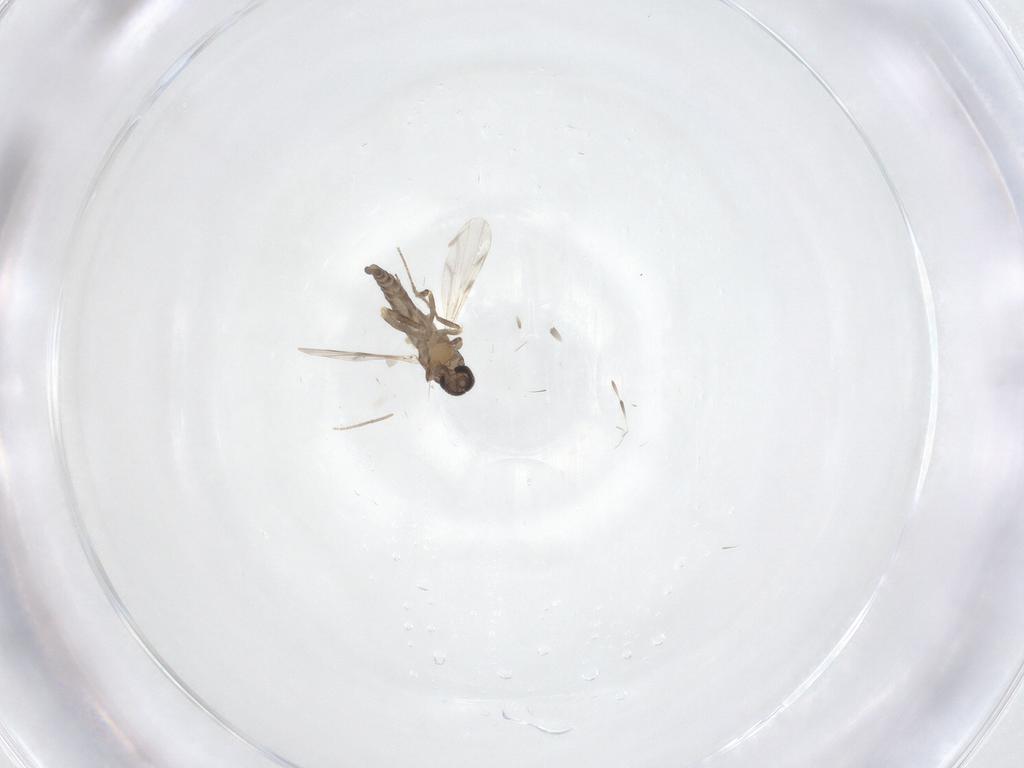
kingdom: Animalia
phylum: Arthropoda
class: Insecta
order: Diptera
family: Ceratopogonidae
